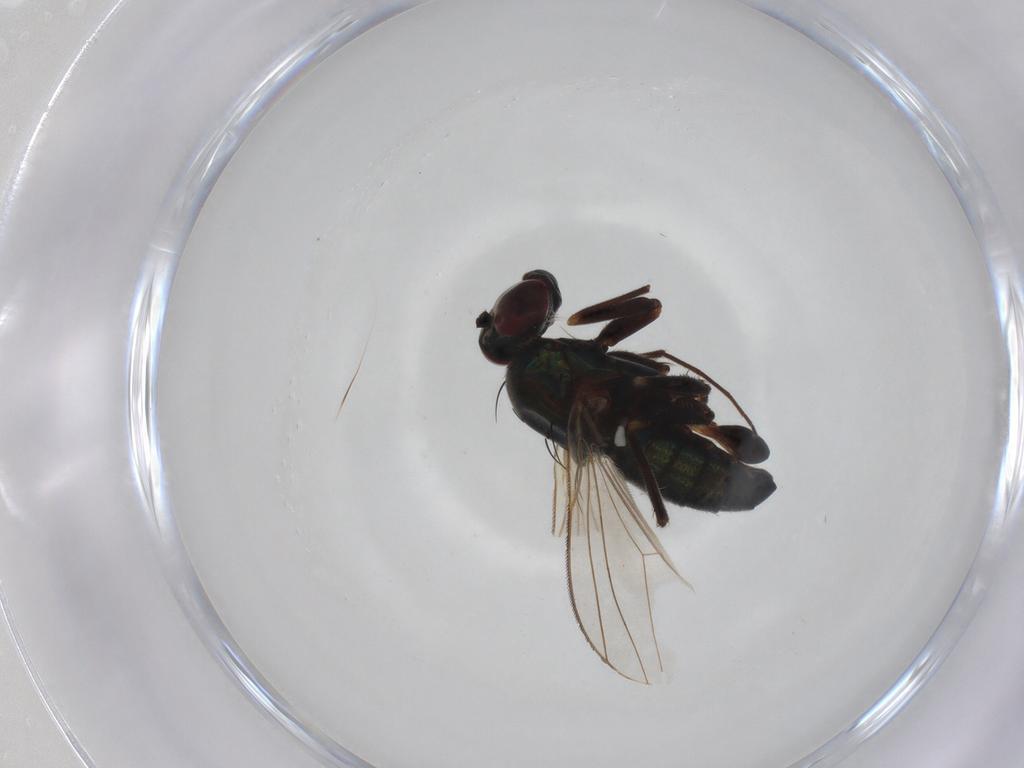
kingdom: Animalia
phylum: Arthropoda
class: Insecta
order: Diptera
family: Dolichopodidae
